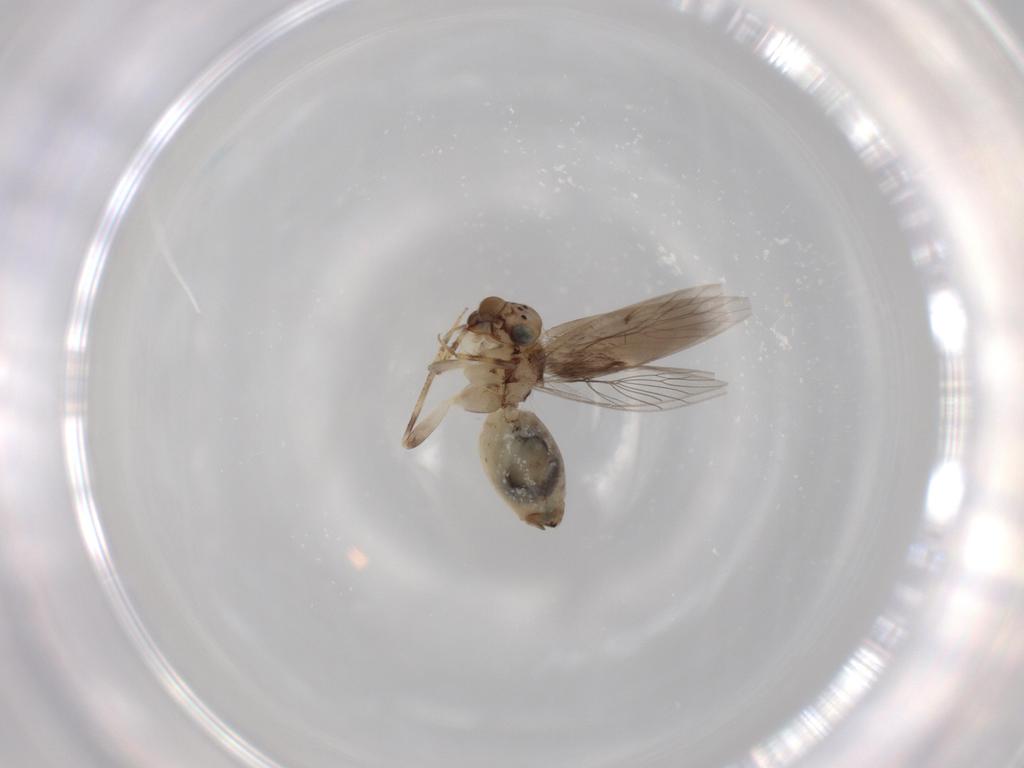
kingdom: Animalia
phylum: Arthropoda
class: Insecta
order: Psocodea
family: Lepidopsocidae
